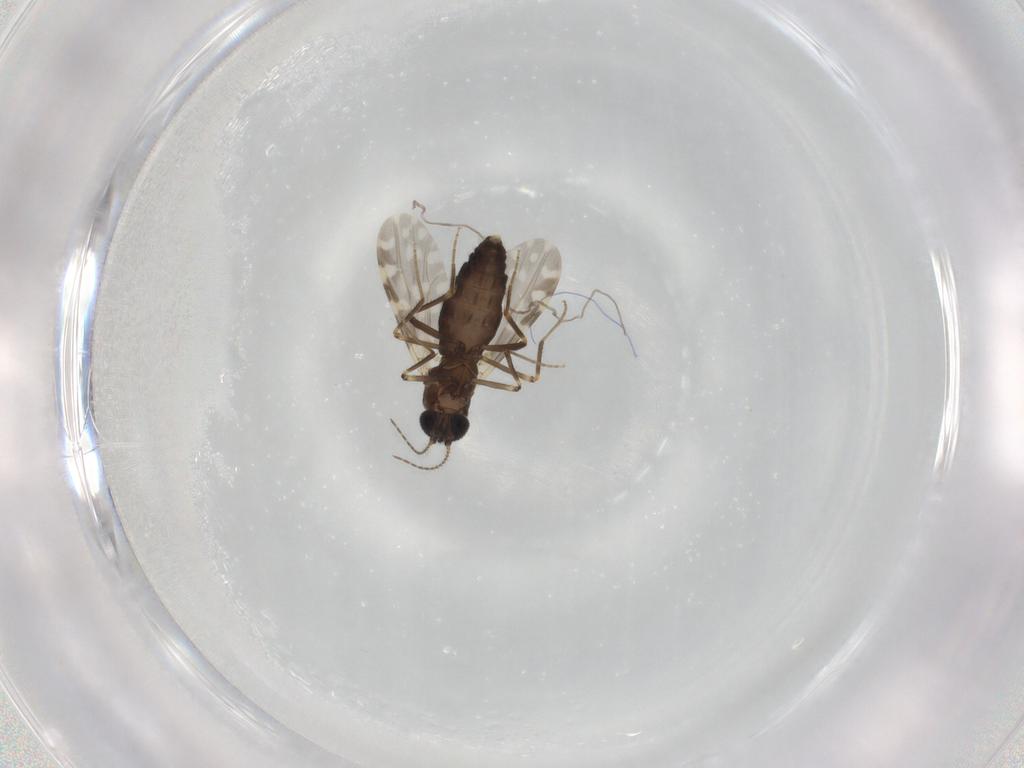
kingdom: Animalia
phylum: Arthropoda
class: Insecta
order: Diptera
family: Ceratopogonidae
